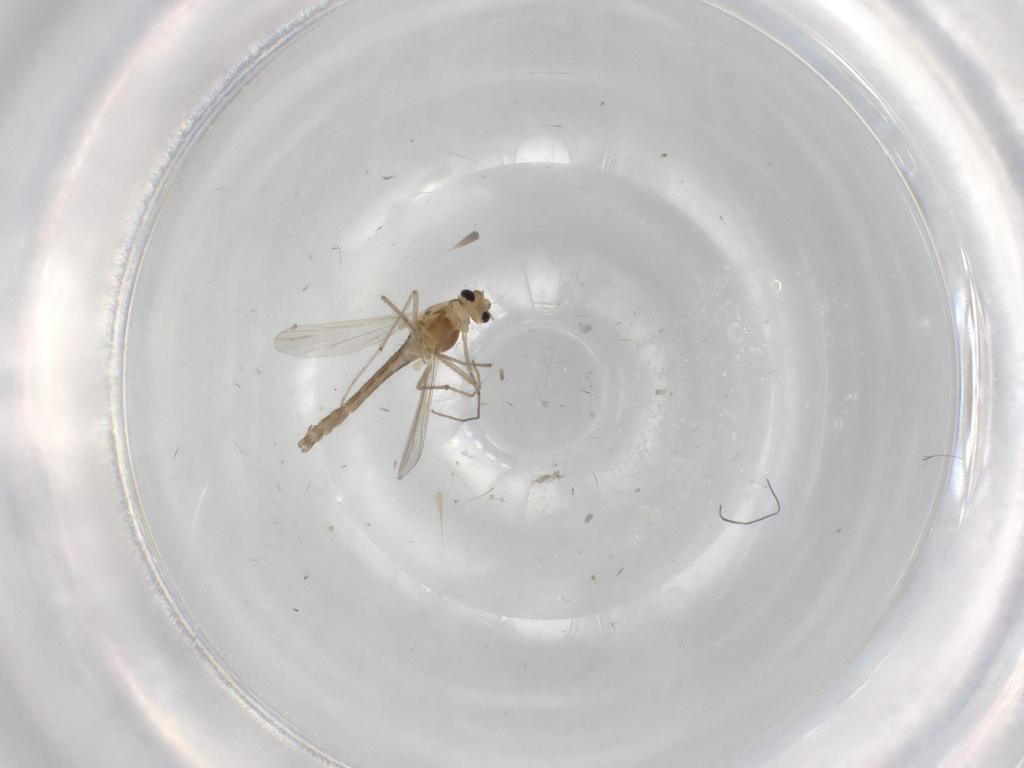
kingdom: Animalia
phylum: Arthropoda
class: Insecta
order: Diptera
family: Chironomidae
